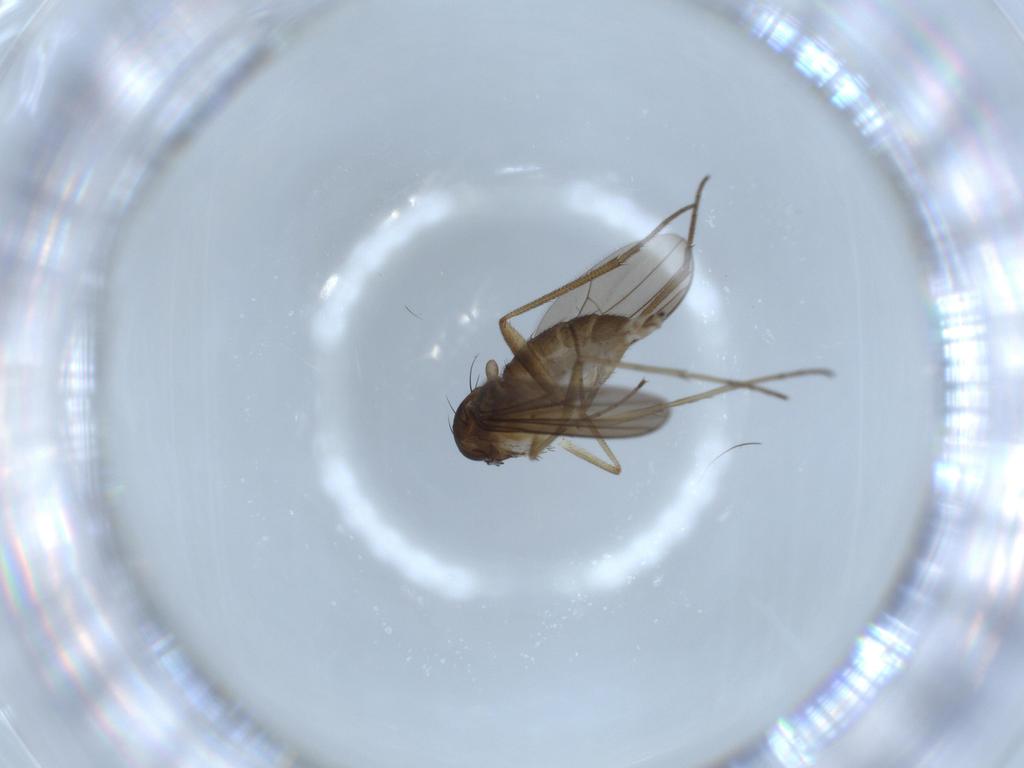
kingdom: Animalia
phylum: Arthropoda
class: Insecta
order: Diptera
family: Dolichopodidae
